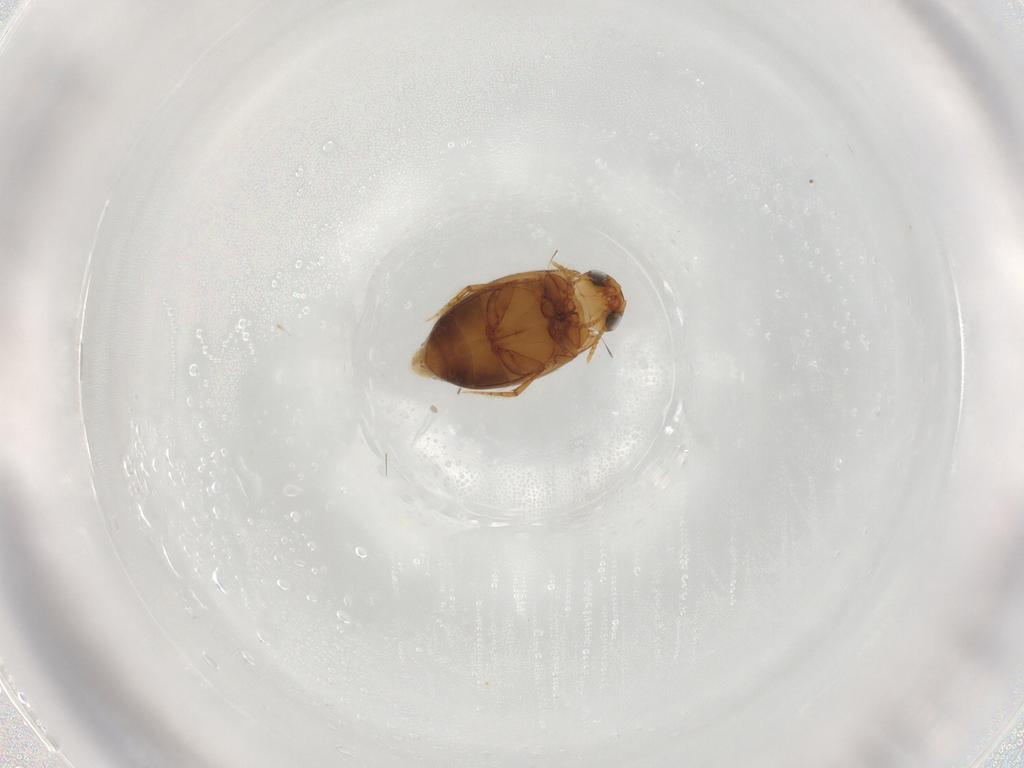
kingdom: Animalia
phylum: Arthropoda
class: Insecta
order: Coleoptera
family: Dytiscidae
